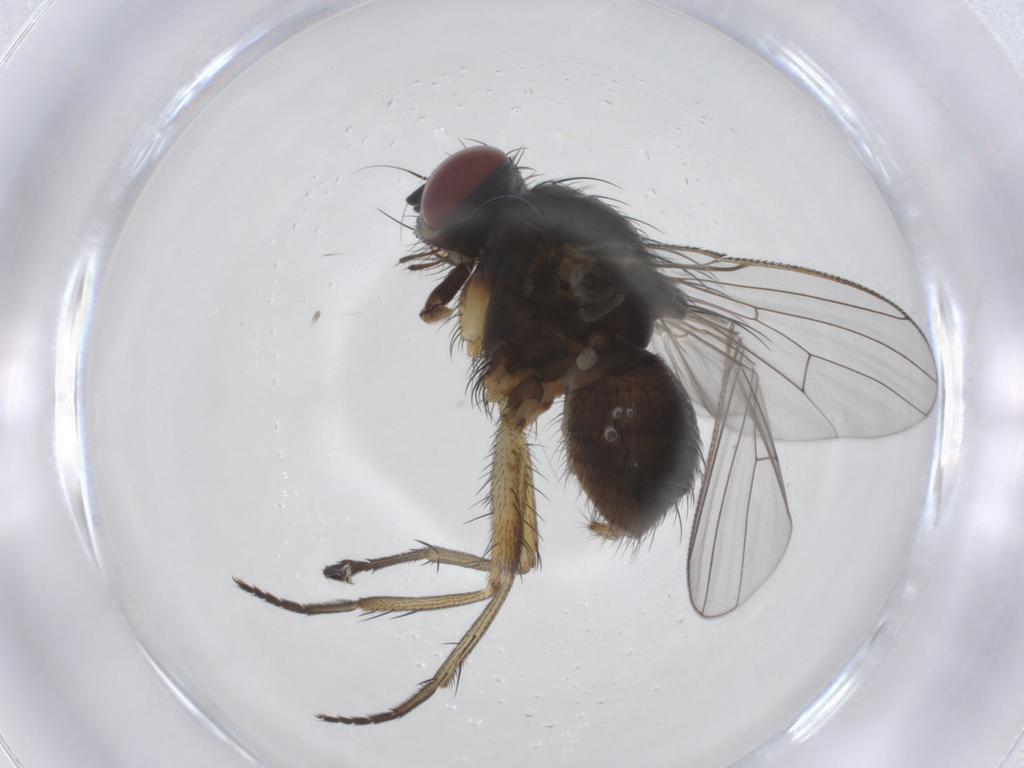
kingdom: Animalia
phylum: Arthropoda
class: Insecta
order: Diptera
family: Muscidae
